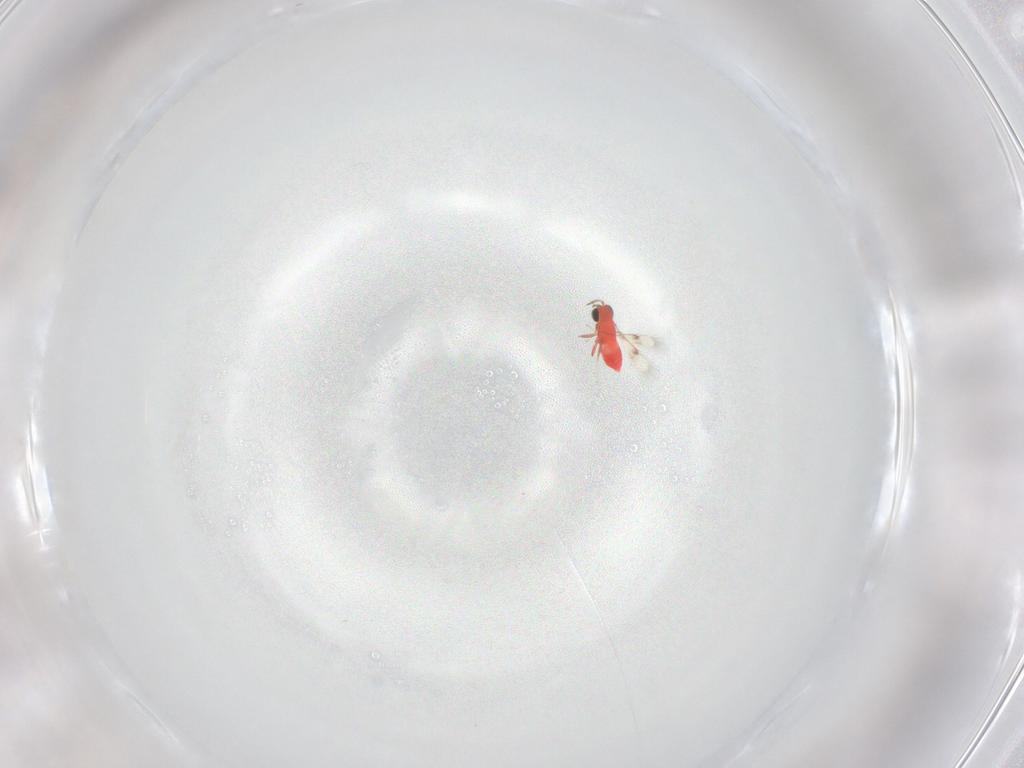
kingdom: Animalia
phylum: Arthropoda
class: Insecta
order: Hymenoptera
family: Trichogrammatidae
